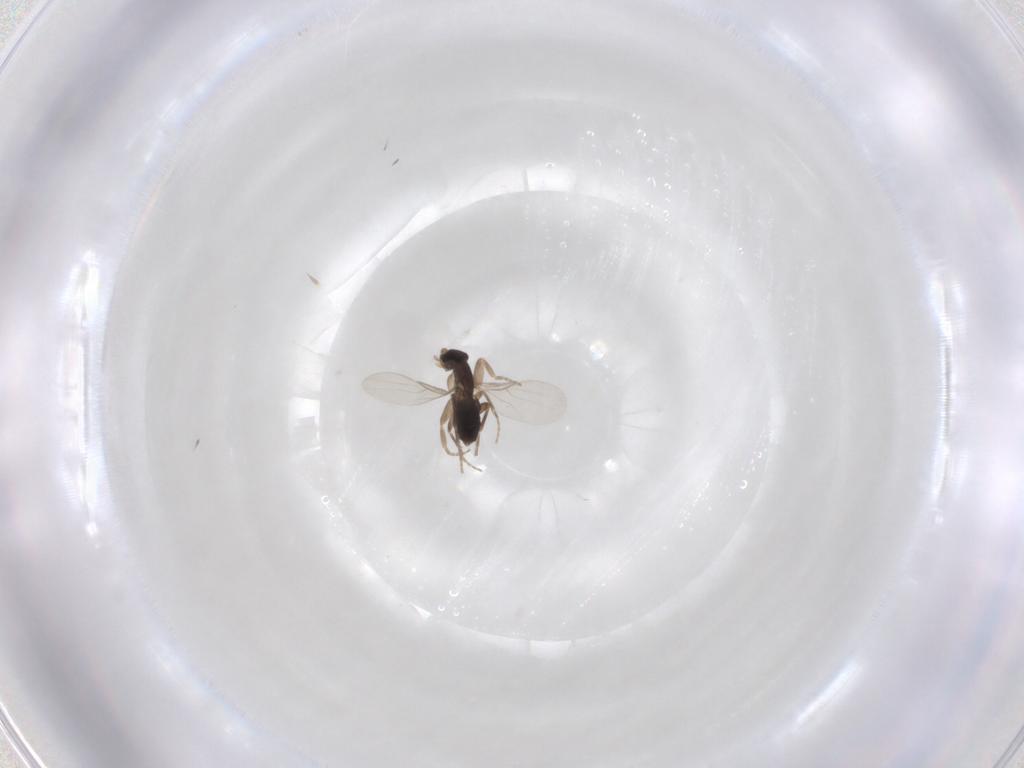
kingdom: Animalia
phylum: Arthropoda
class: Insecta
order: Diptera
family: Phoridae
